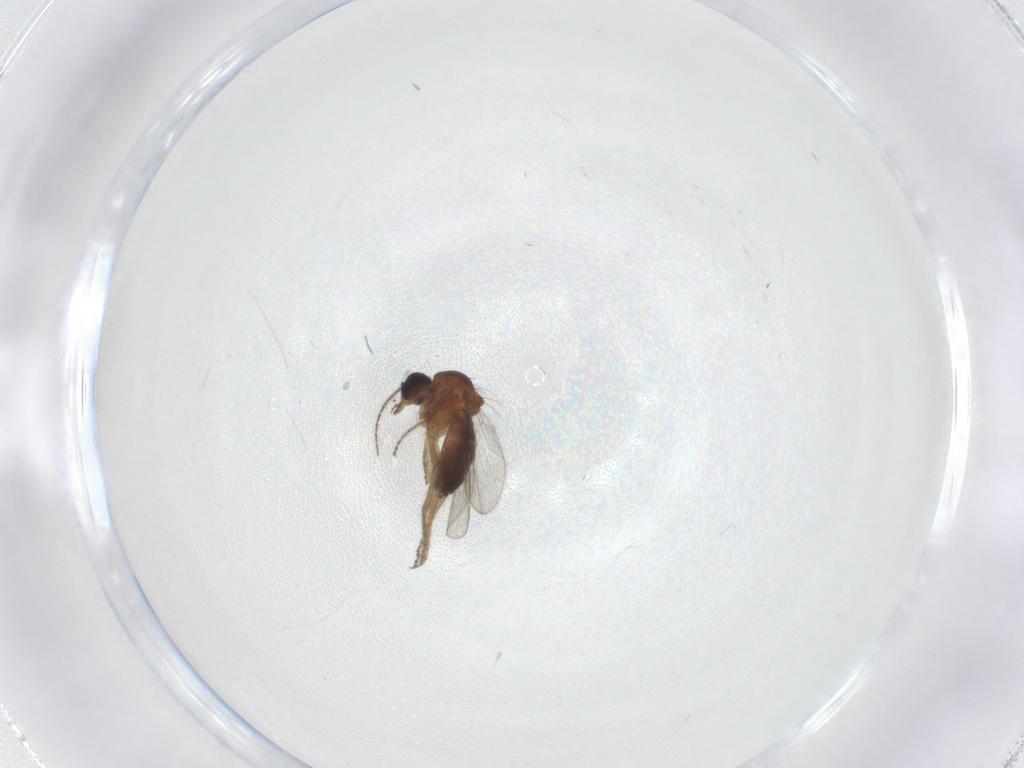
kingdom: Animalia
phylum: Arthropoda
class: Insecta
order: Diptera
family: Ceratopogonidae
